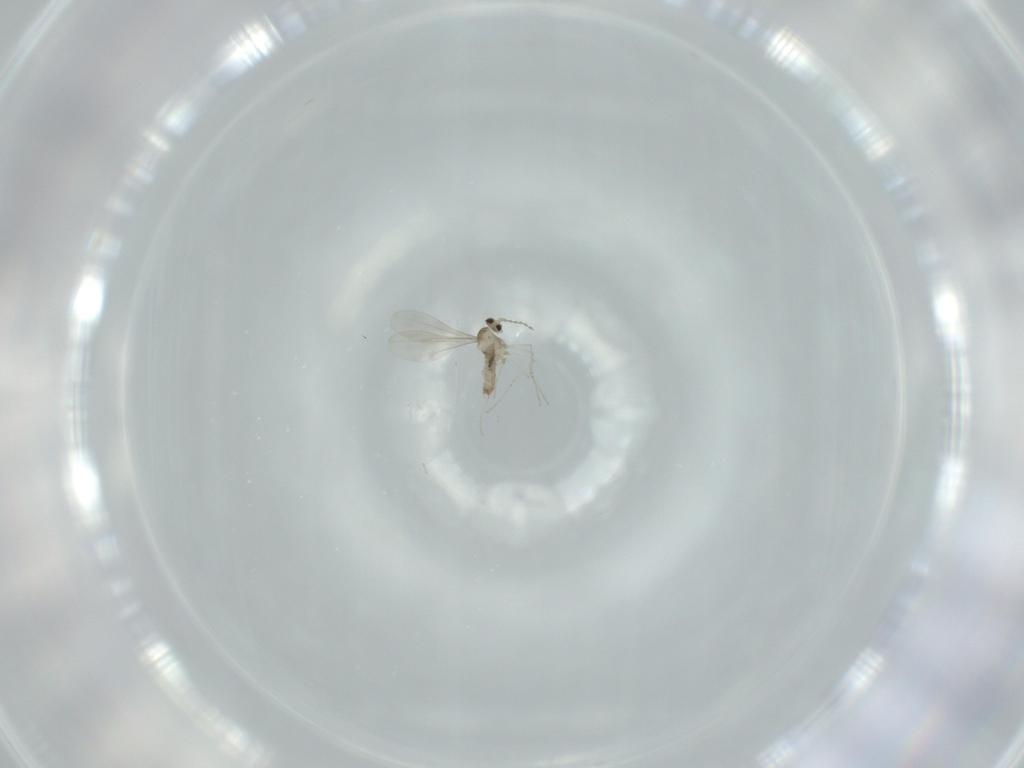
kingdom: Animalia
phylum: Arthropoda
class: Insecta
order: Diptera
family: Cecidomyiidae
